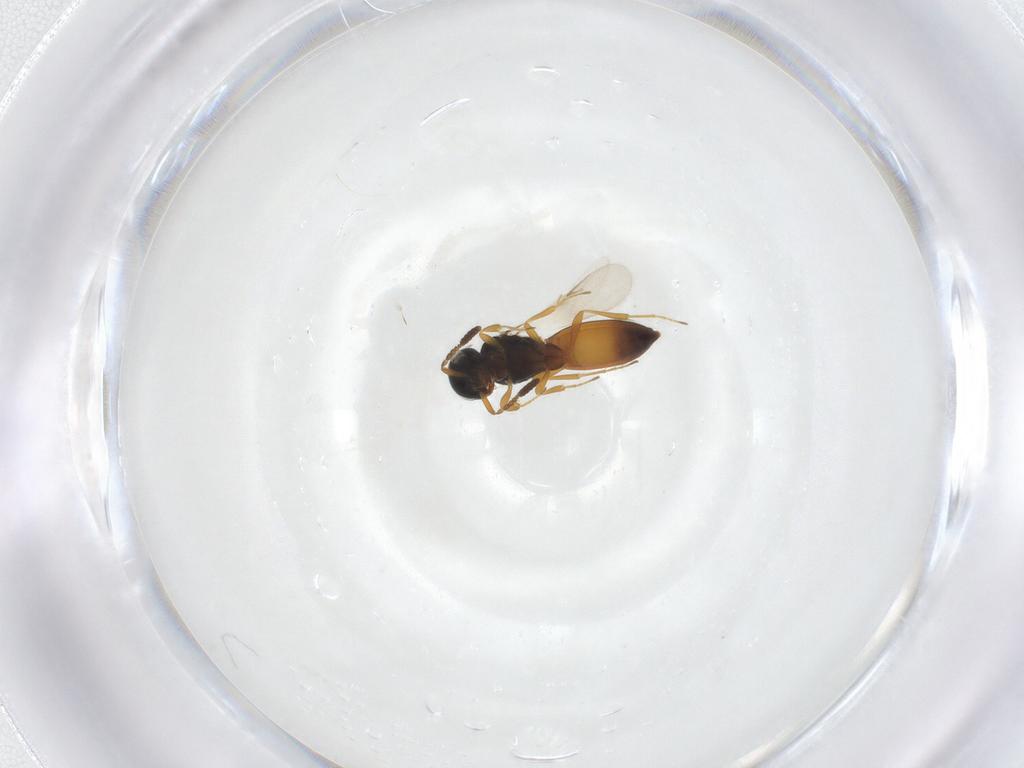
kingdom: Animalia
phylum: Arthropoda
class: Insecta
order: Hymenoptera
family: Scelionidae
